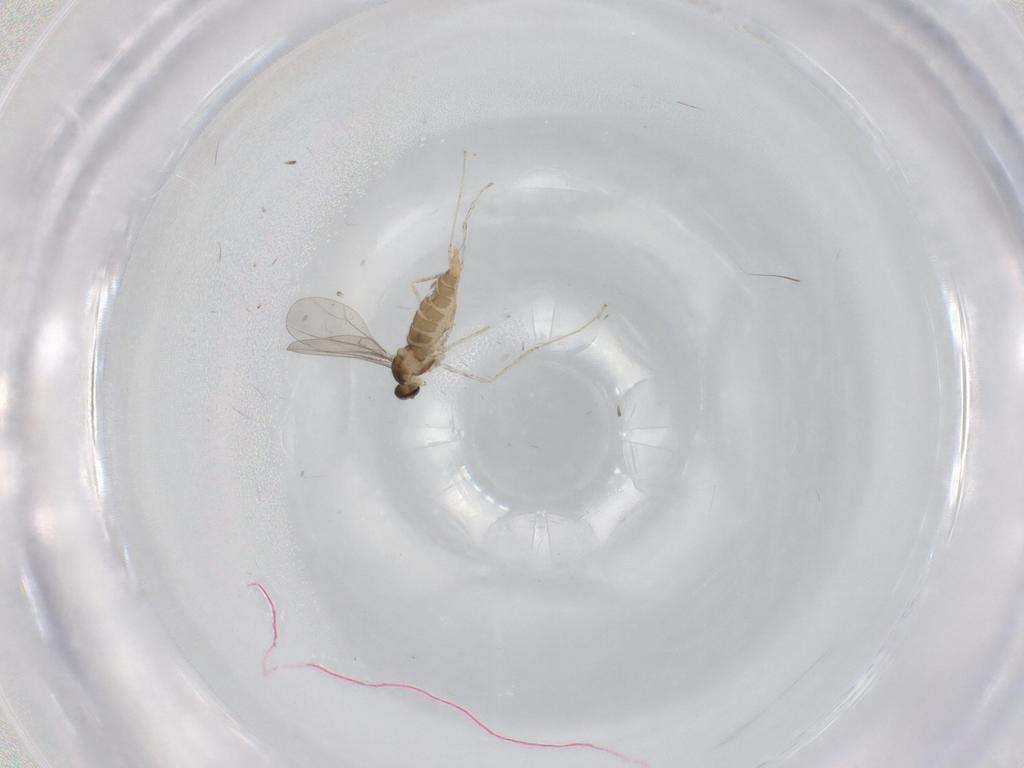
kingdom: Animalia
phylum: Arthropoda
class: Insecta
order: Diptera
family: Cecidomyiidae
